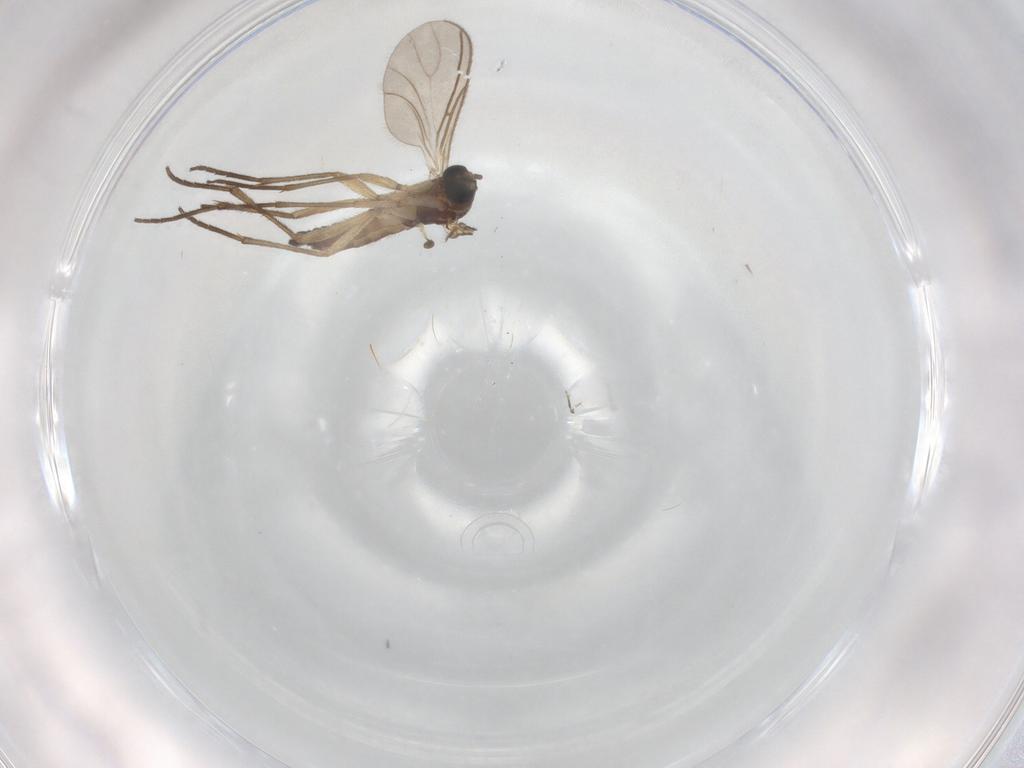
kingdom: Animalia
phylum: Arthropoda
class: Insecta
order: Diptera
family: Sciaridae
